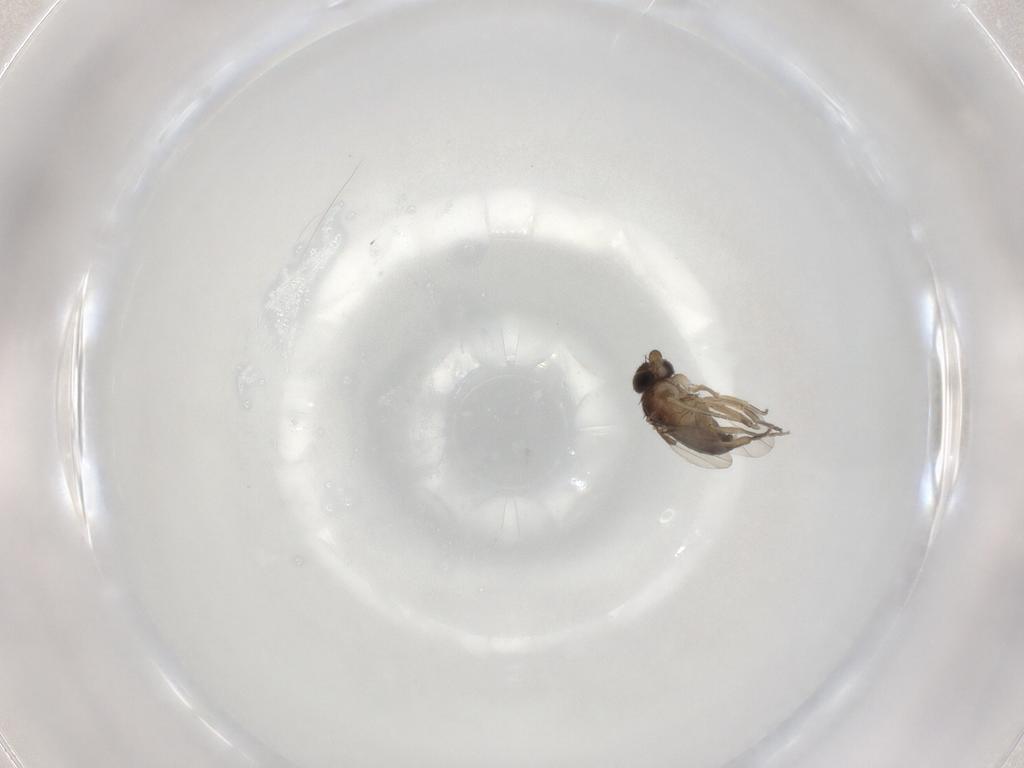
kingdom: Animalia
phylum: Arthropoda
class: Insecta
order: Diptera
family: Phoridae
